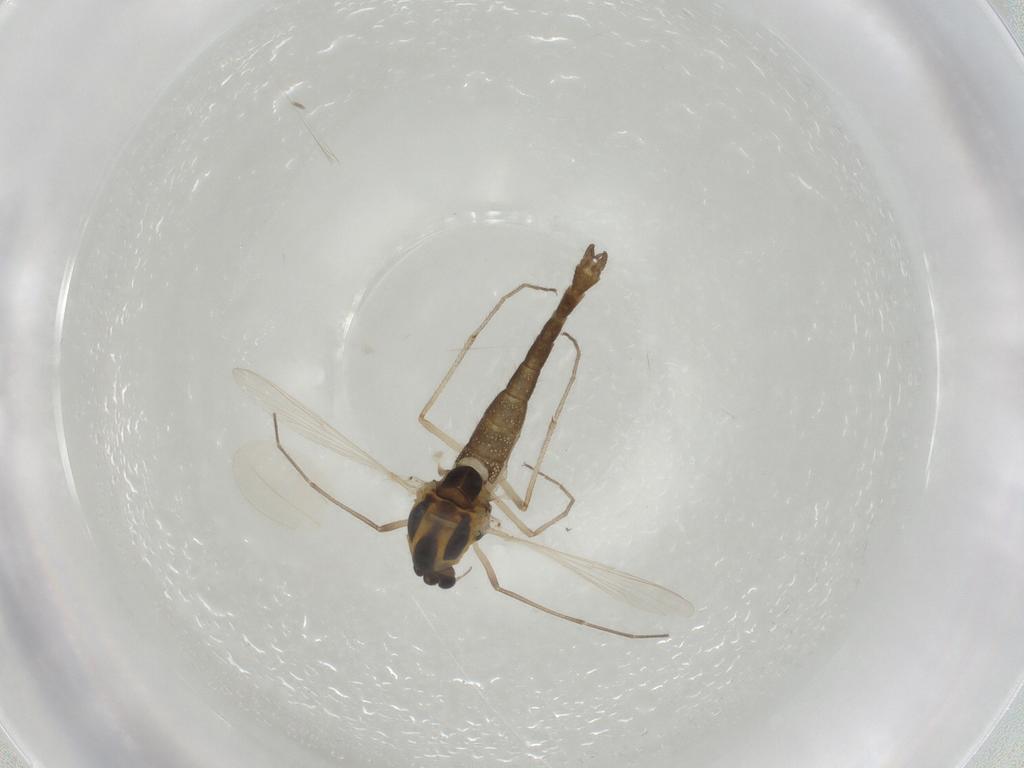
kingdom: Animalia
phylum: Arthropoda
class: Insecta
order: Diptera
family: Chironomidae
